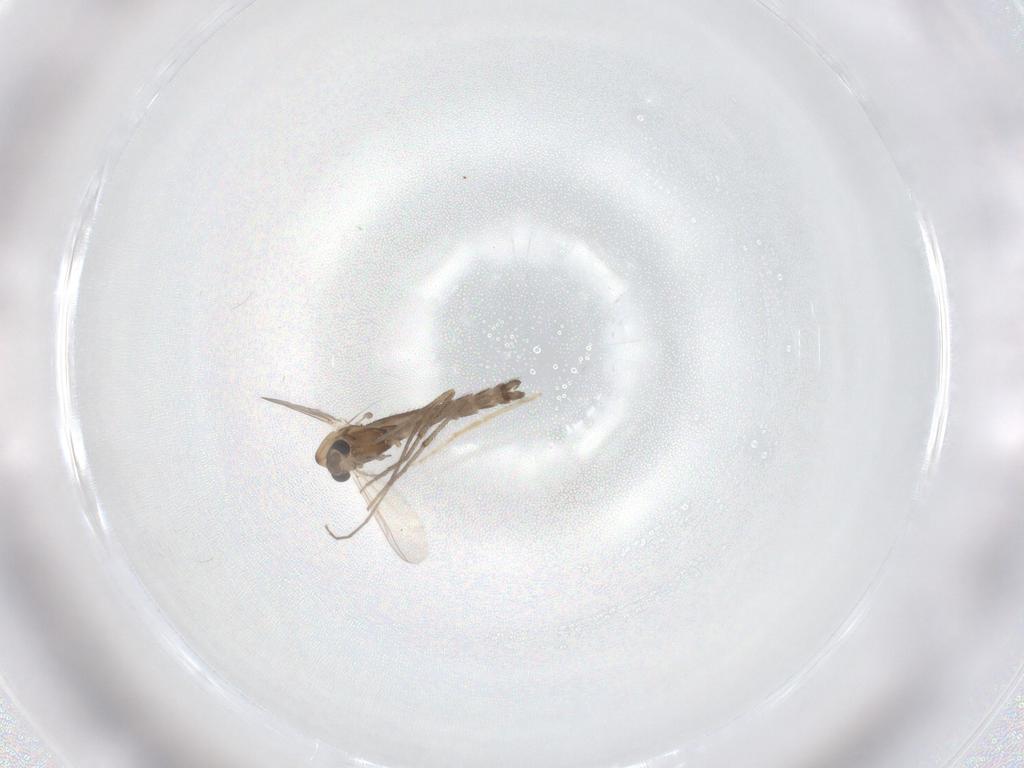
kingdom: Animalia
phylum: Arthropoda
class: Insecta
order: Diptera
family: Chironomidae
